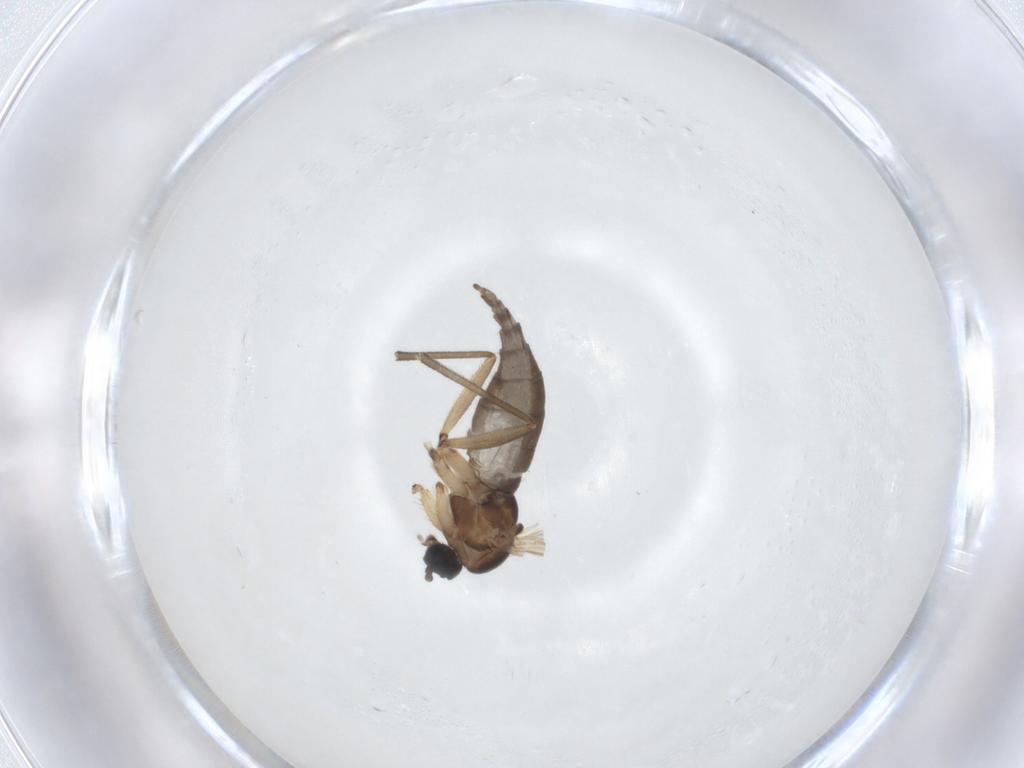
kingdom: Animalia
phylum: Arthropoda
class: Insecta
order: Diptera
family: Sciaridae
